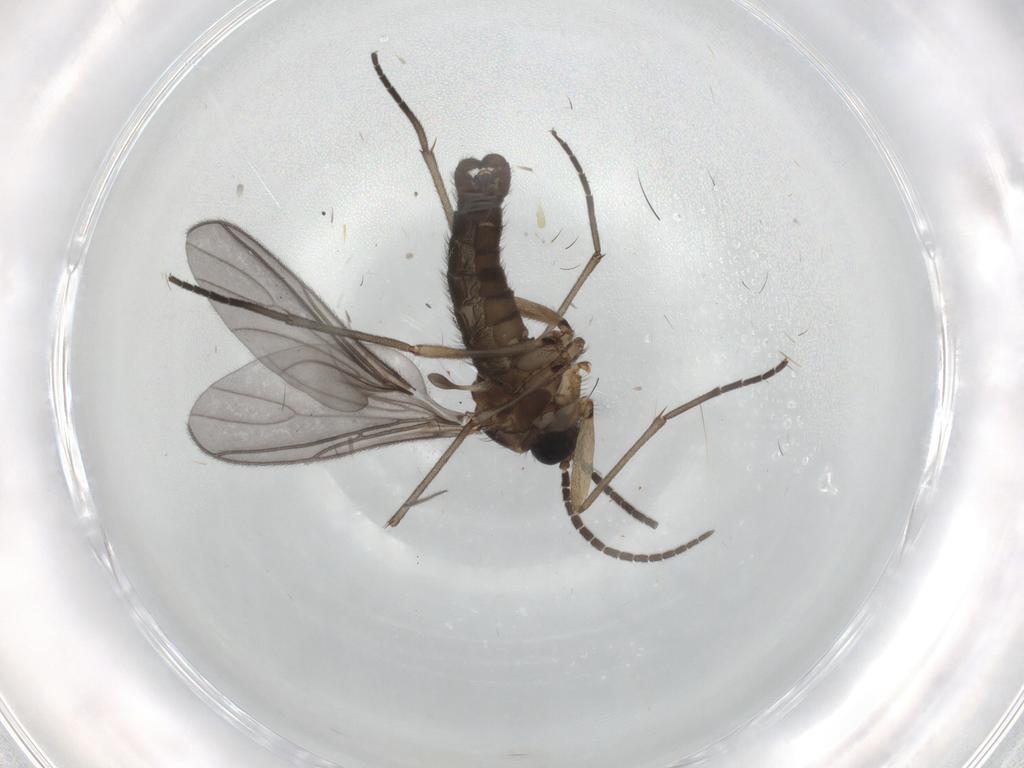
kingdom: Animalia
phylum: Arthropoda
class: Insecta
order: Diptera
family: Sciaridae
